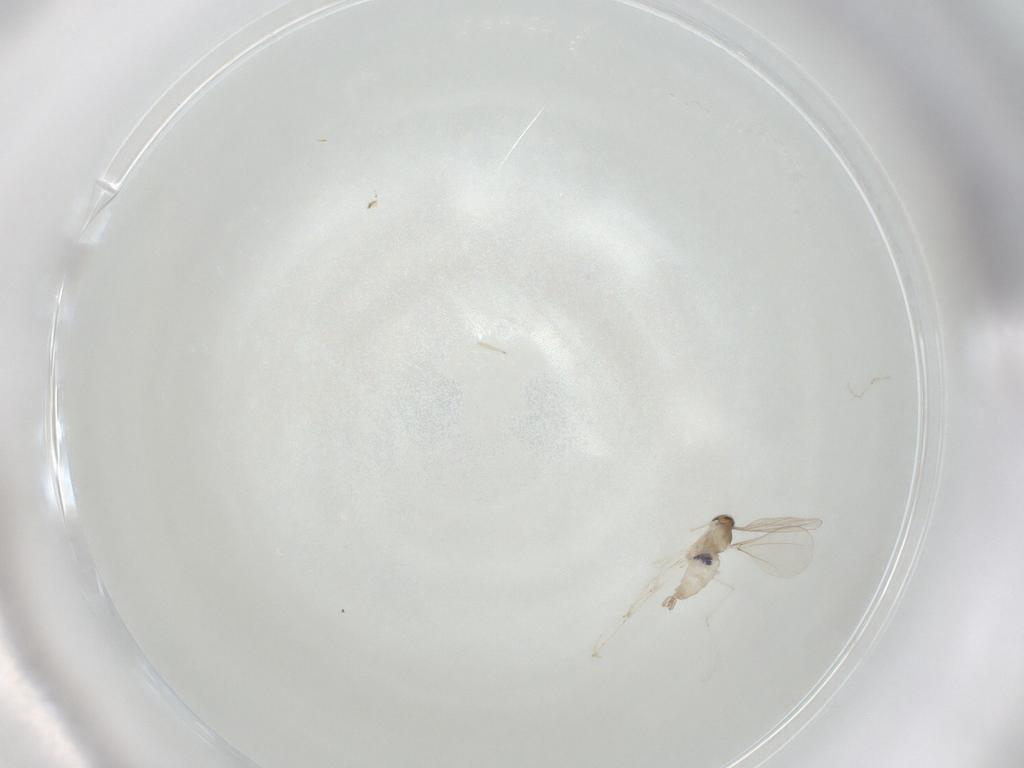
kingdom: Animalia
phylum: Arthropoda
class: Insecta
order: Diptera
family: Cecidomyiidae
